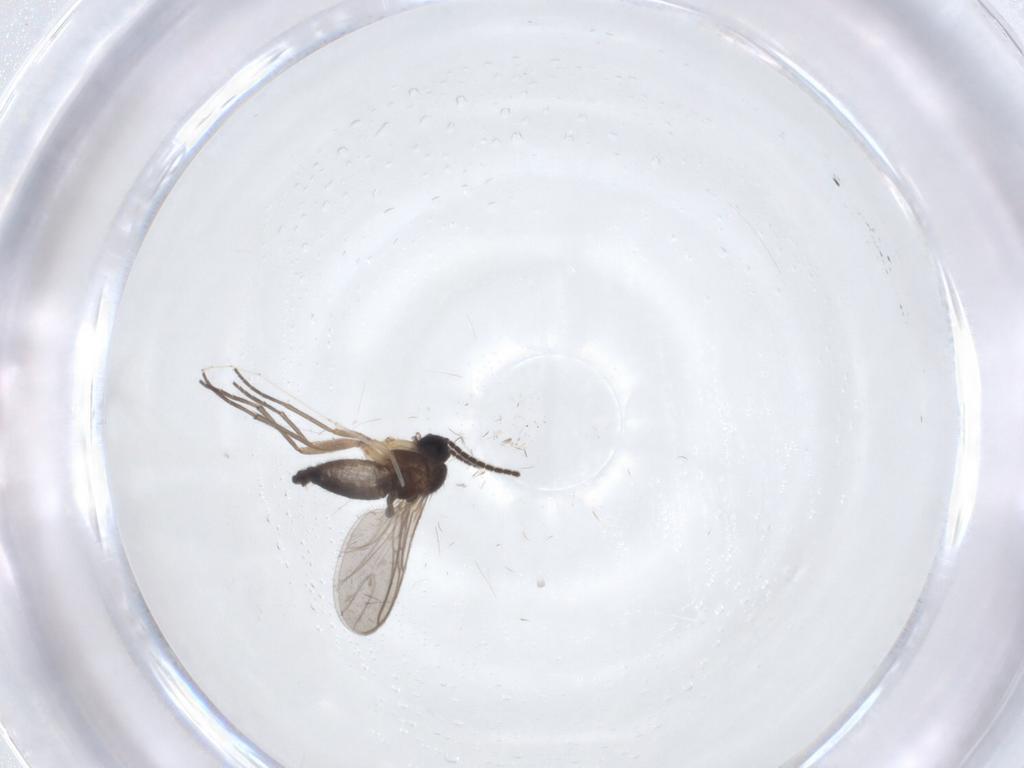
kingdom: Animalia
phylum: Arthropoda
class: Insecta
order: Diptera
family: Sciaridae
